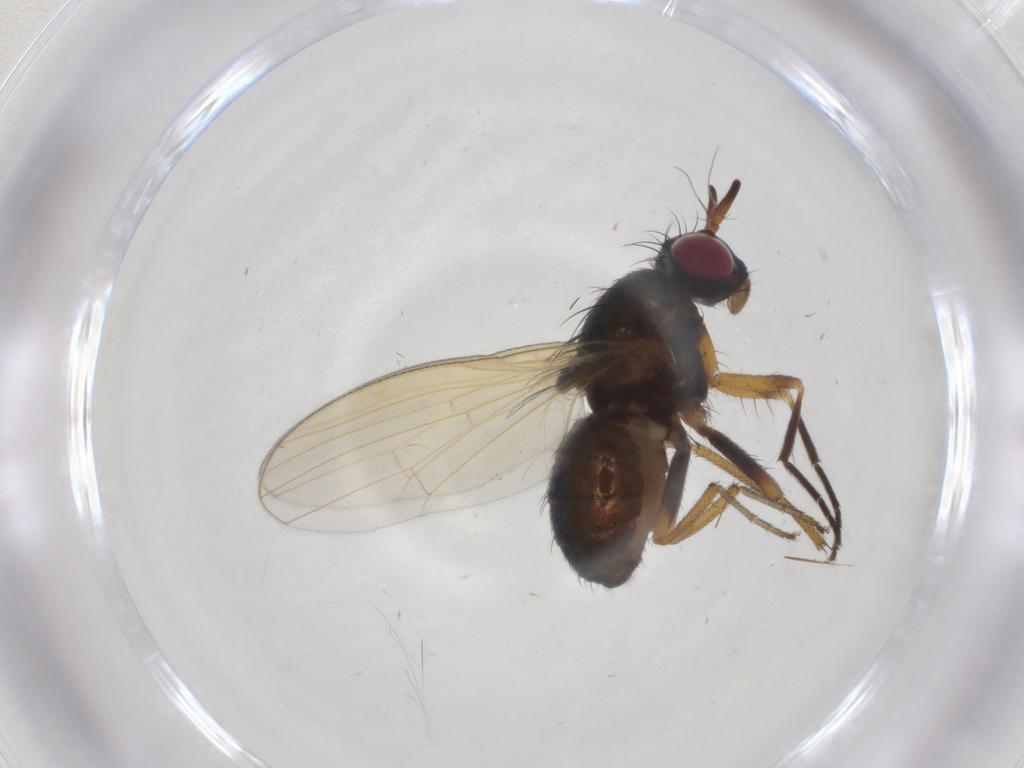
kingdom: Animalia
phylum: Arthropoda
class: Insecta
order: Diptera
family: Lauxaniidae
